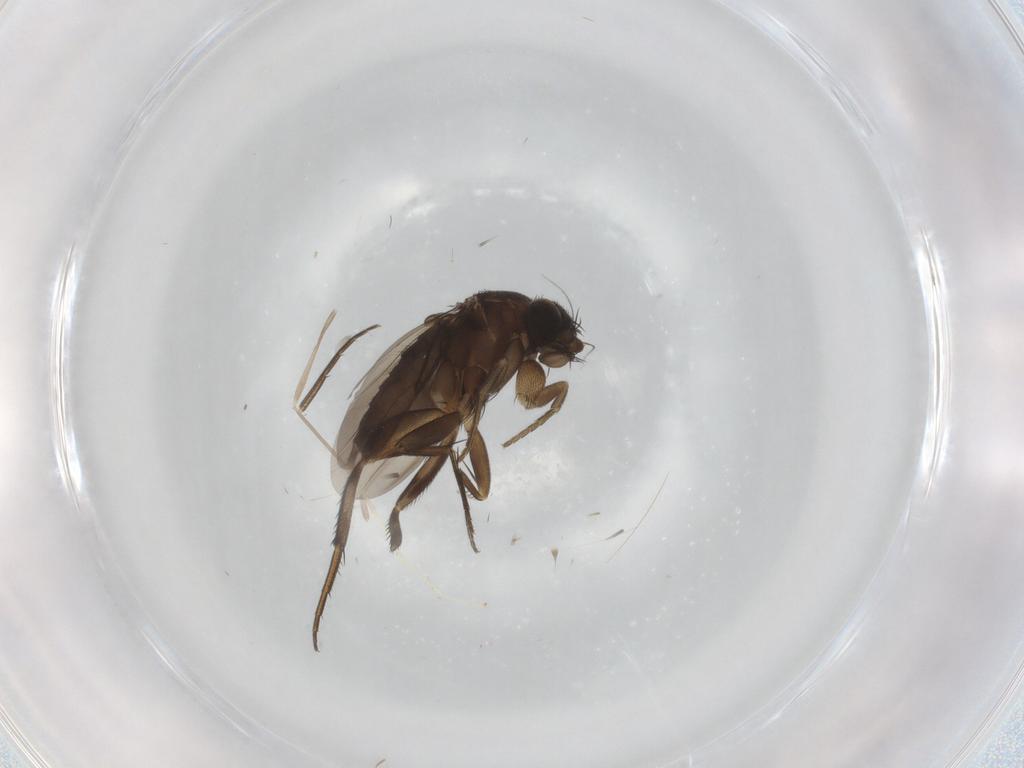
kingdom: Animalia
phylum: Arthropoda
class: Insecta
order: Diptera
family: Phoridae
